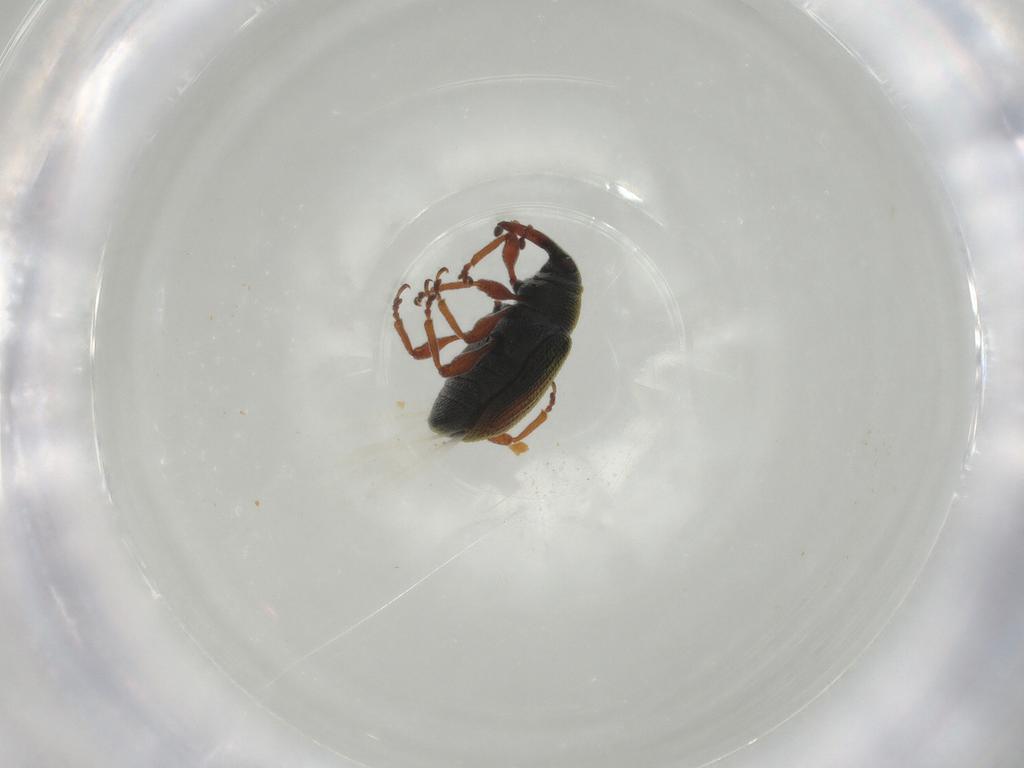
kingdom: Animalia
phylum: Arthropoda
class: Insecta
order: Coleoptera
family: Curculionidae
